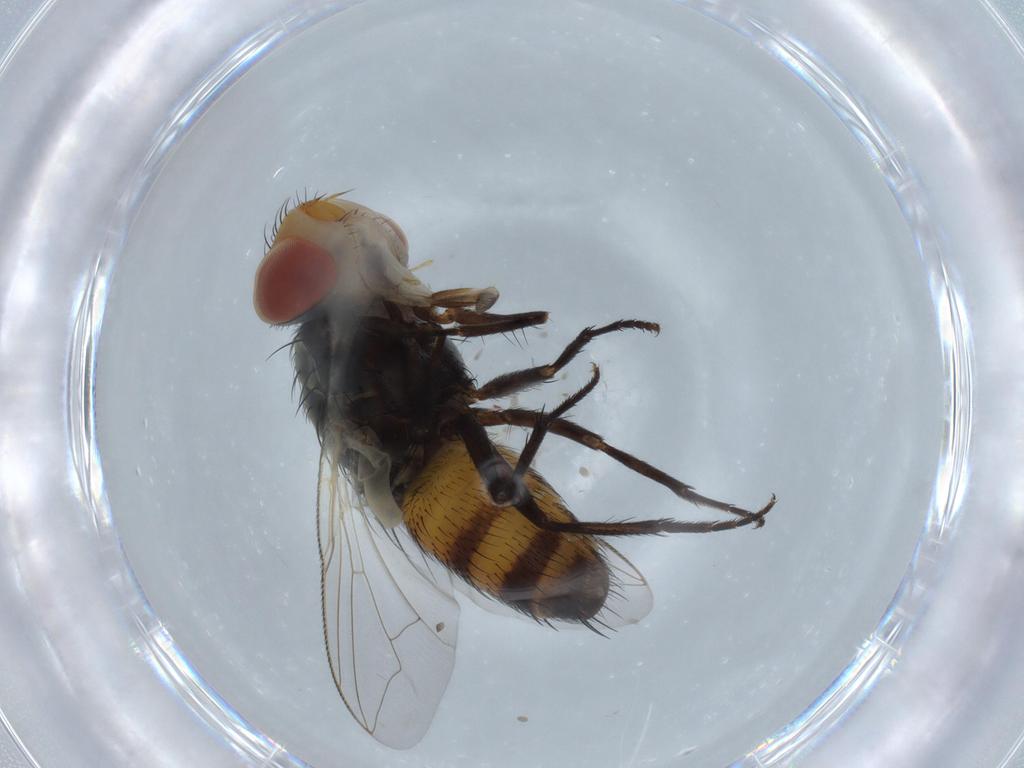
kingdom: Animalia
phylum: Arthropoda
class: Insecta
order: Diptera
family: Sarcophagidae
